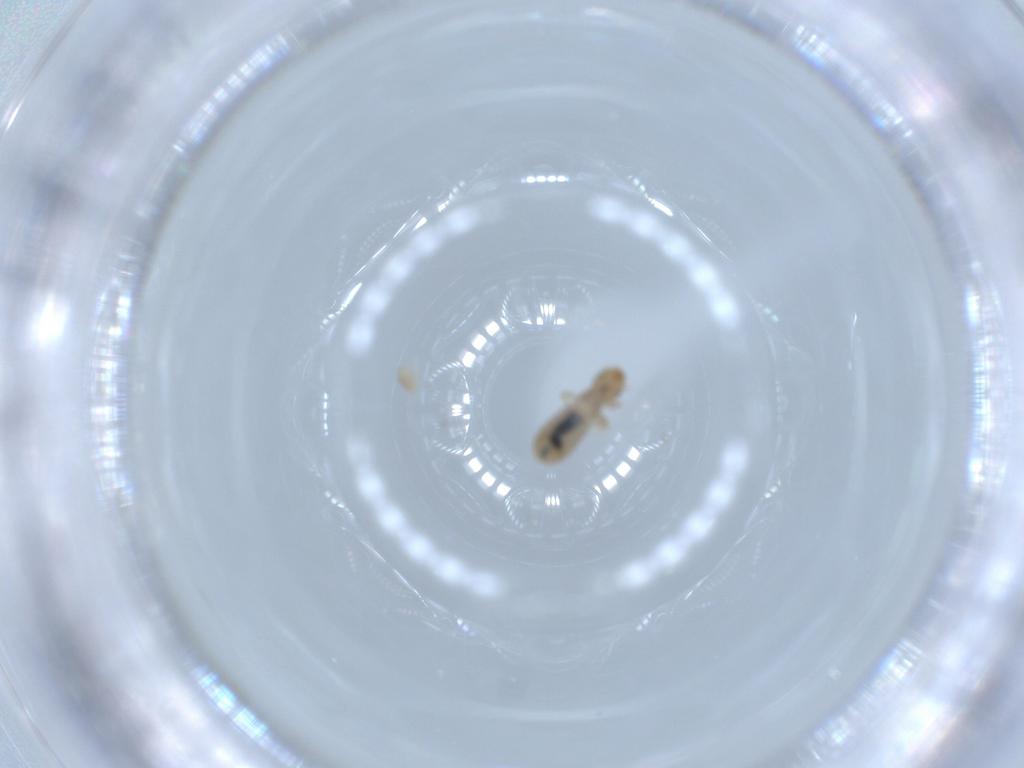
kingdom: Animalia
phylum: Arthropoda
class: Insecta
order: Psocodea
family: Liposcelididae
